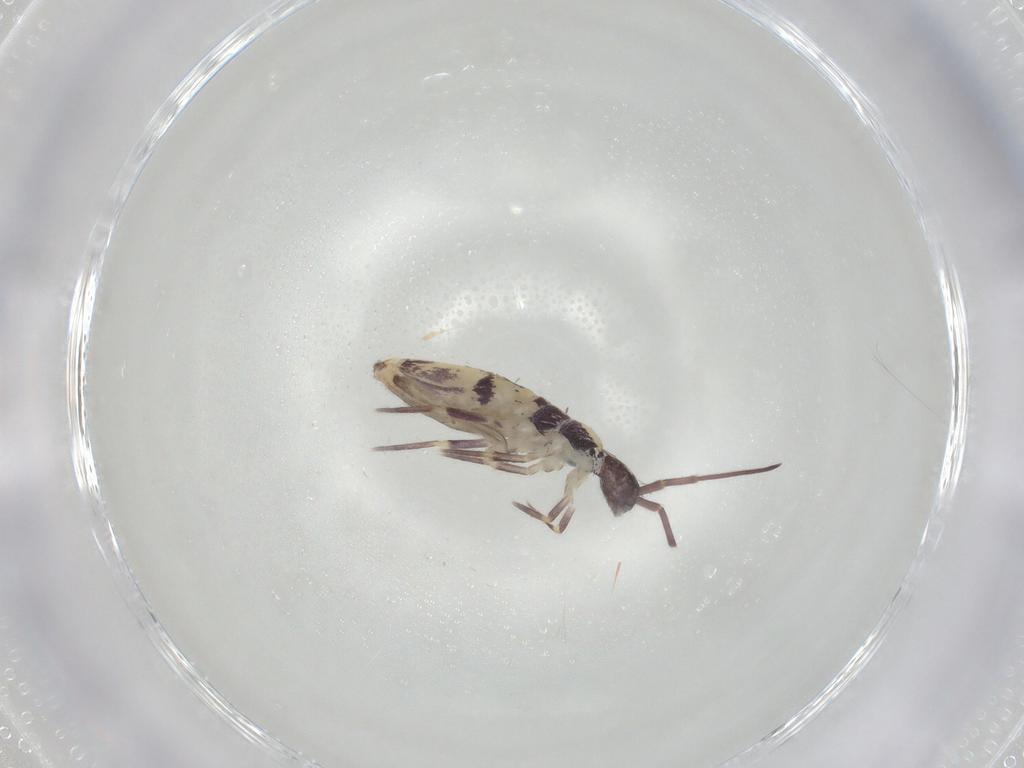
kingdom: Animalia
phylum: Arthropoda
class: Collembola
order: Entomobryomorpha
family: Entomobryidae
